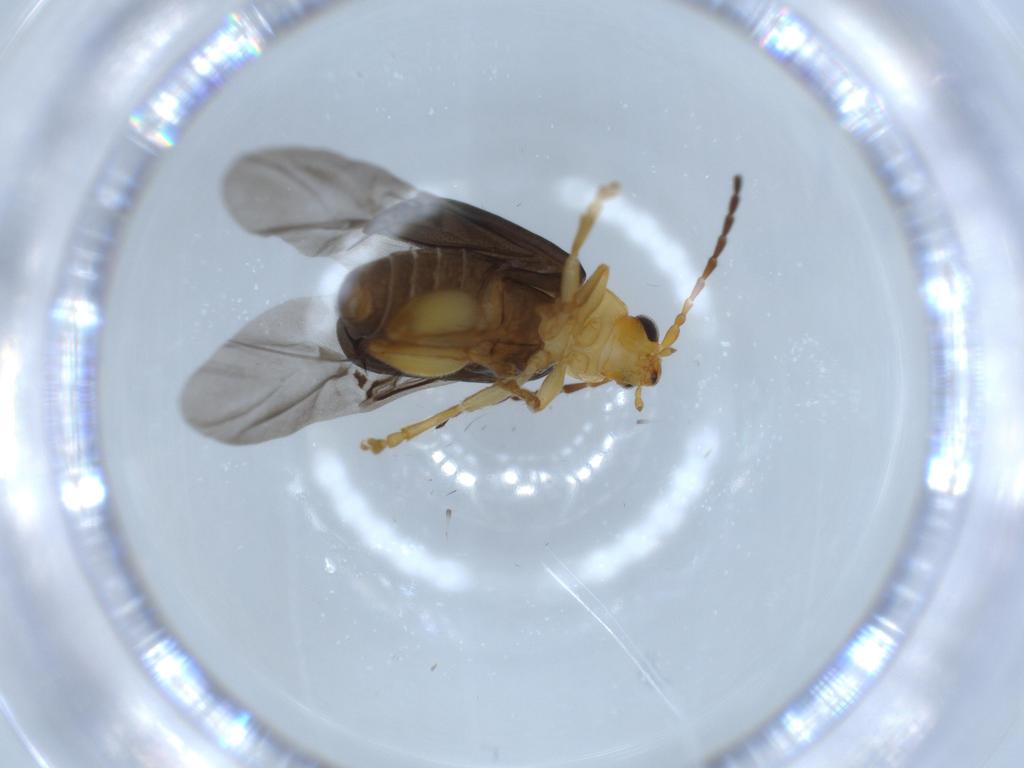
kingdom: Animalia
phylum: Arthropoda
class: Insecta
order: Coleoptera
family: Chrysomelidae
